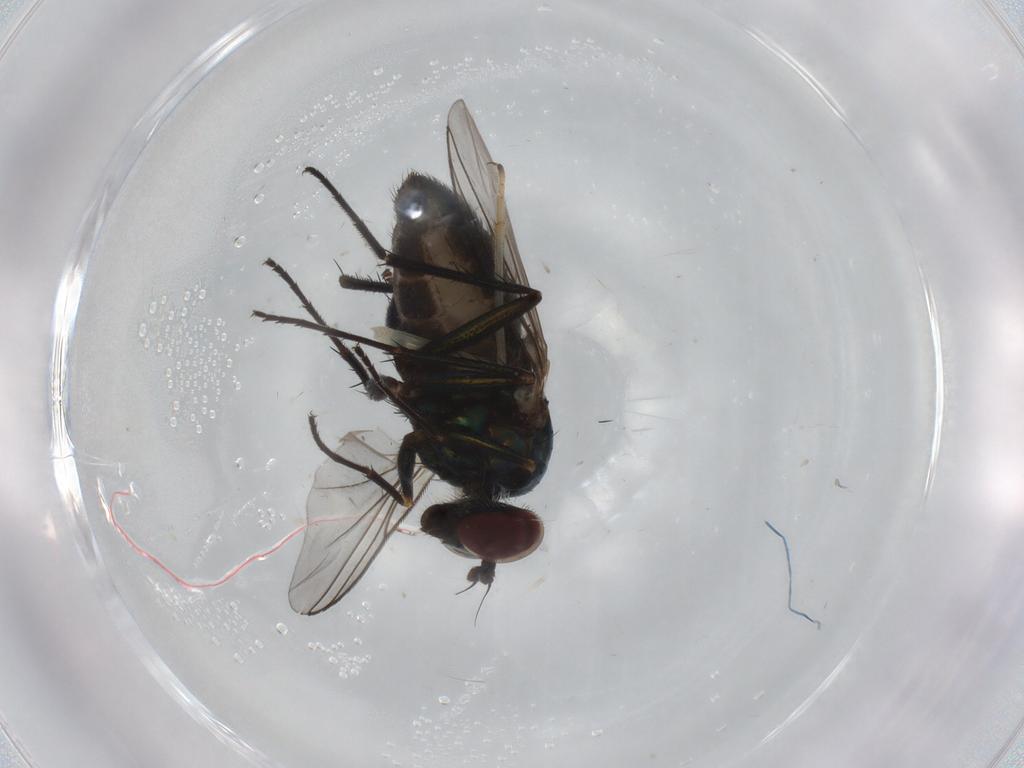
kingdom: Animalia
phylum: Arthropoda
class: Insecta
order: Diptera
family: Dolichopodidae
